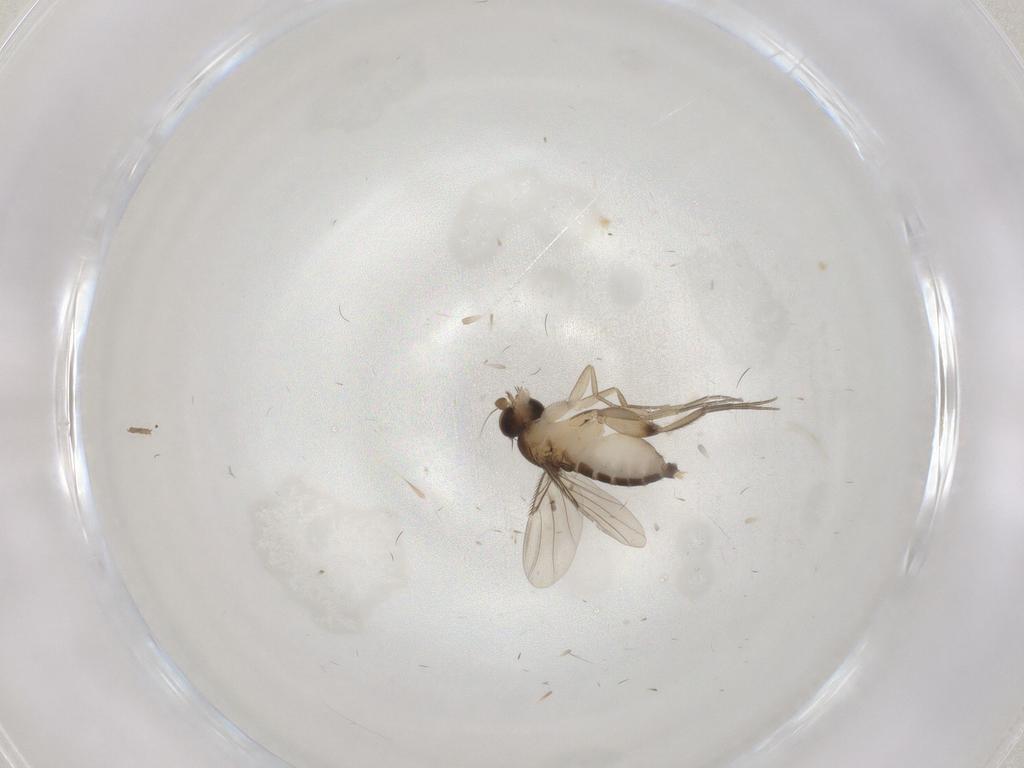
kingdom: Animalia
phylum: Arthropoda
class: Insecta
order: Diptera
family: Phoridae
